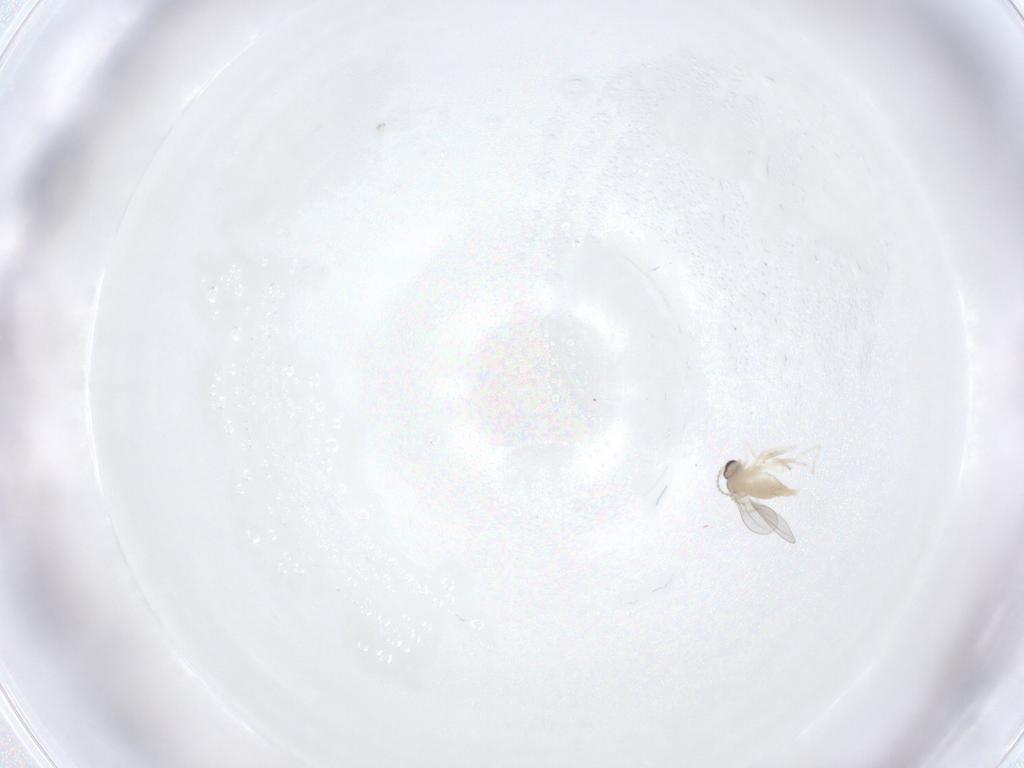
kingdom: Animalia
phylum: Arthropoda
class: Insecta
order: Diptera
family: Cecidomyiidae
